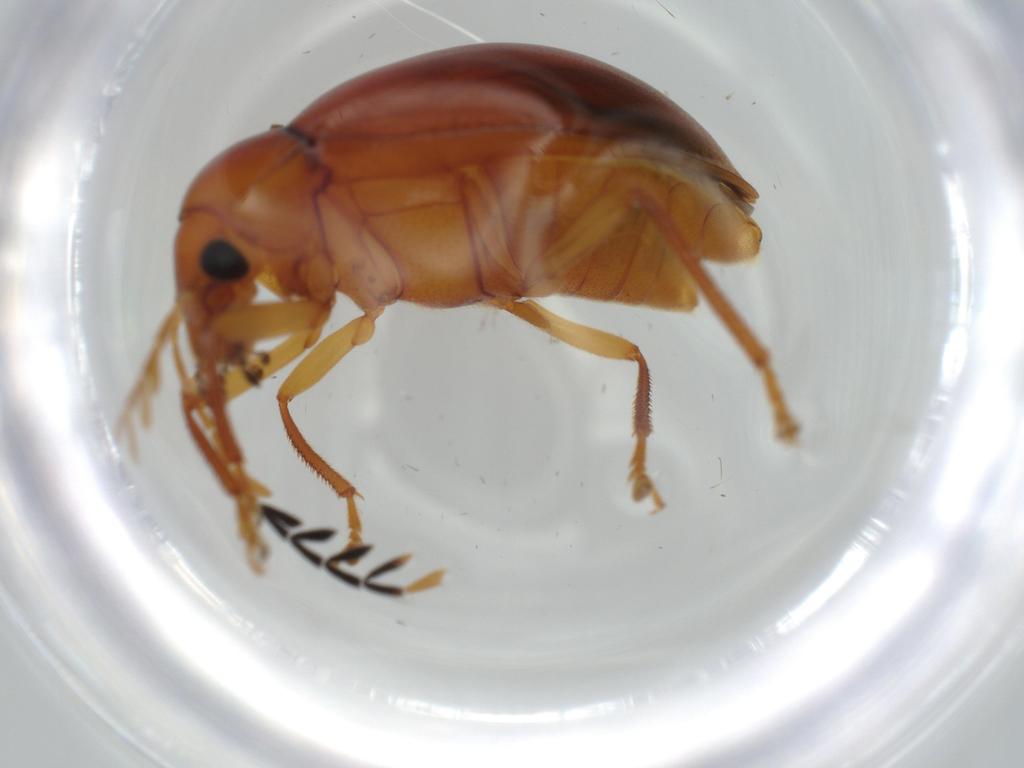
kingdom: Animalia
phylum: Arthropoda
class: Insecta
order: Coleoptera
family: Ptilodactylidae
